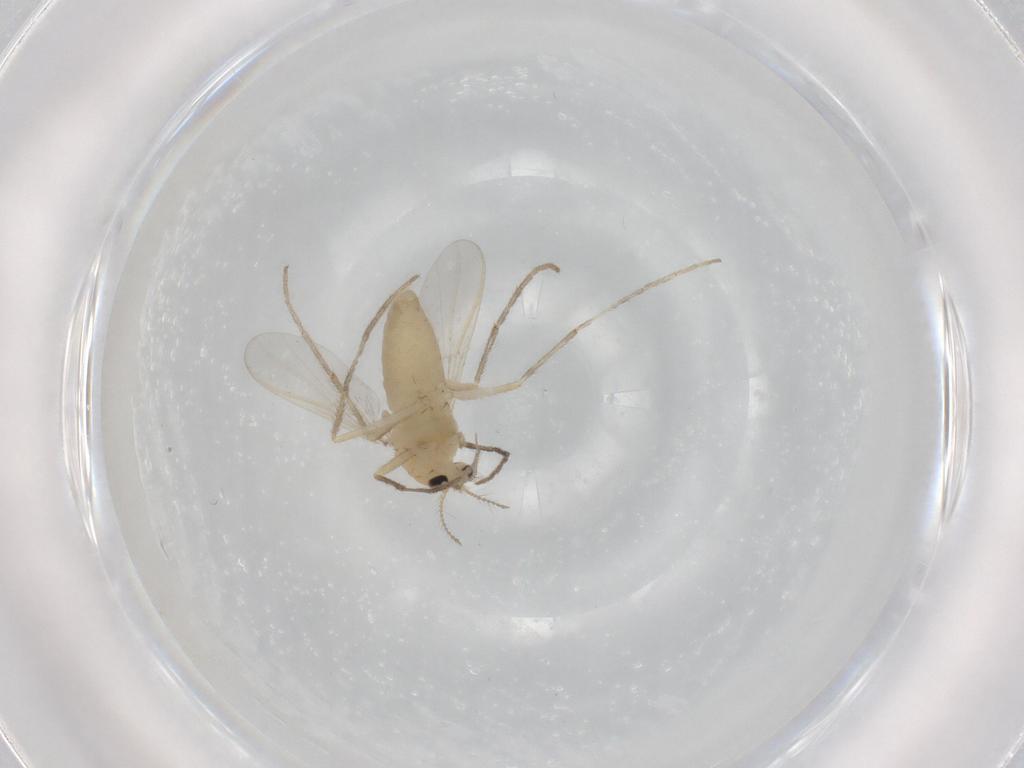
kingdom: Animalia
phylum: Arthropoda
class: Insecta
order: Diptera
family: Chironomidae
